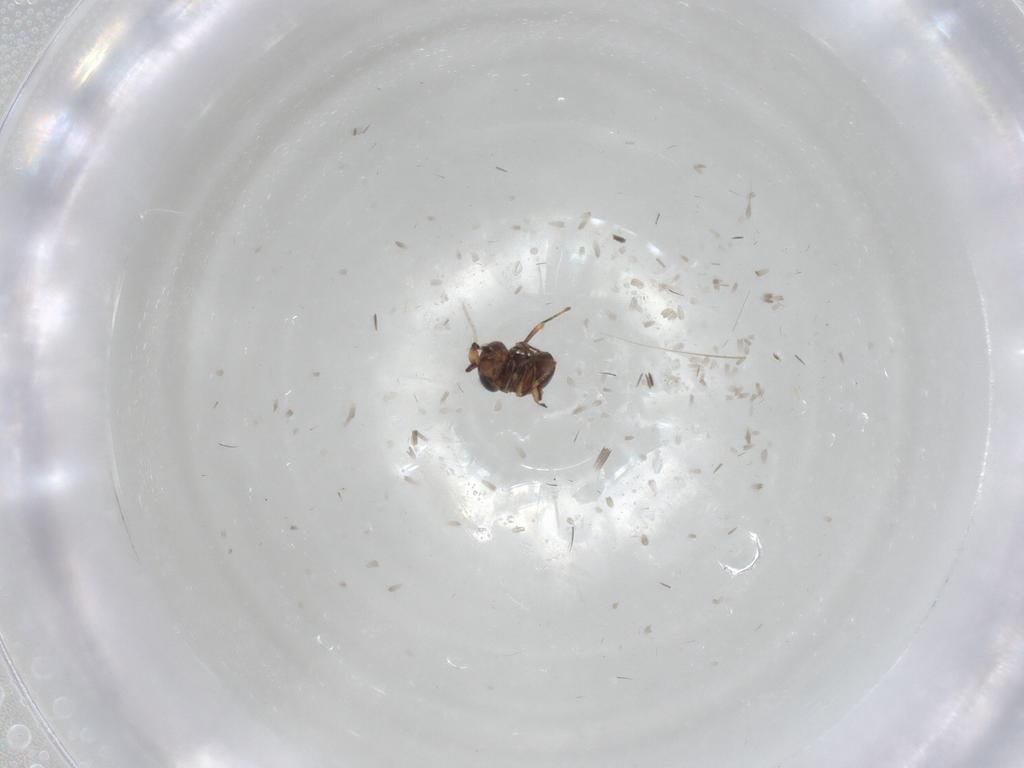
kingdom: Animalia
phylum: Arthropoda
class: Insecta
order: Hymenoptera
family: Scelionidae
